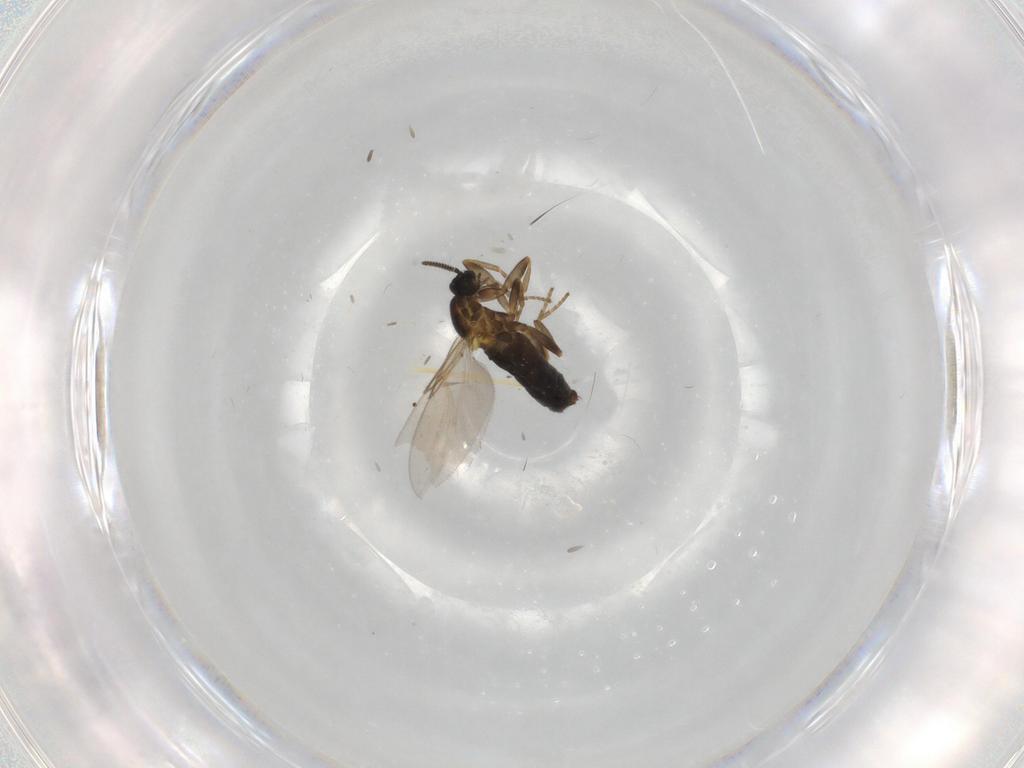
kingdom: Animalia
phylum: Arthropoda
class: Insecta
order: Diptera
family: Scatopsidae
